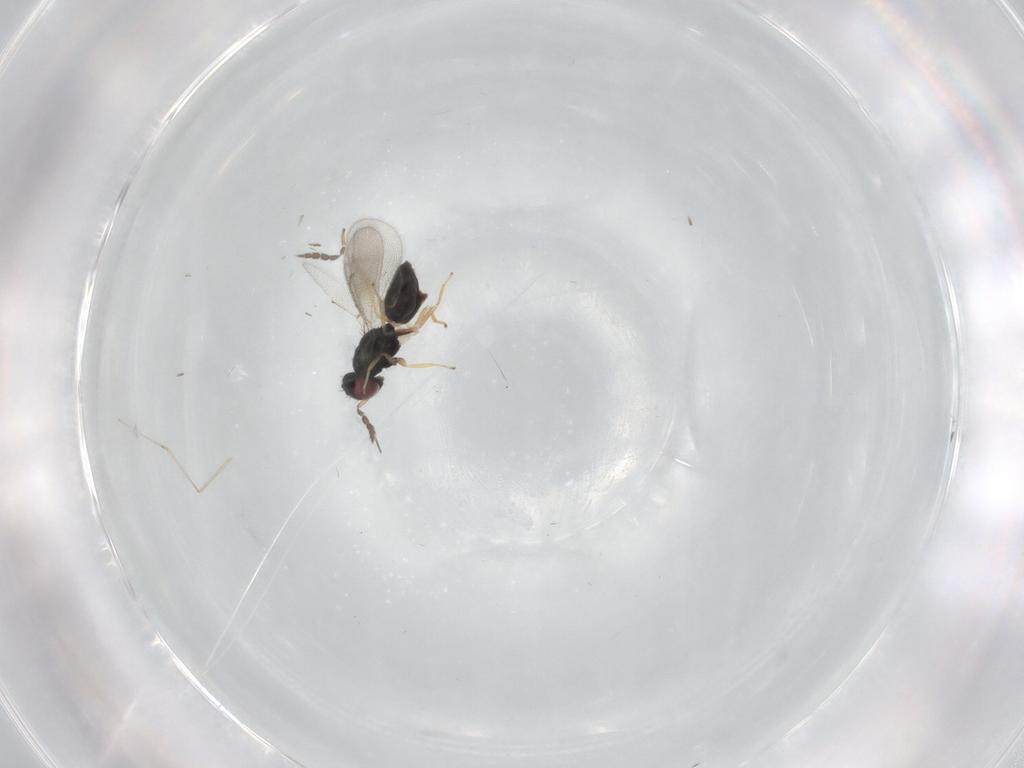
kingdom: Animalia
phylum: Arthropoda
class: Insecta
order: Hymenoptera
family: Eulophidae
